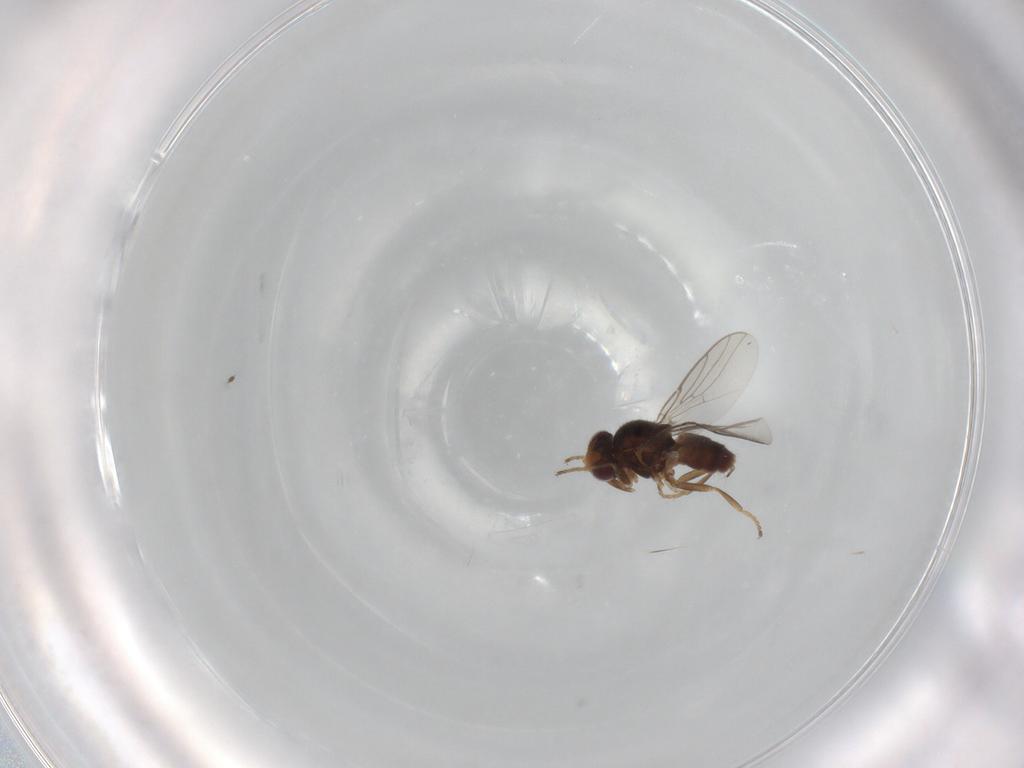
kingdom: Animalia
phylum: Arthropoda
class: Insecta
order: Diptera
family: Chloropidae
